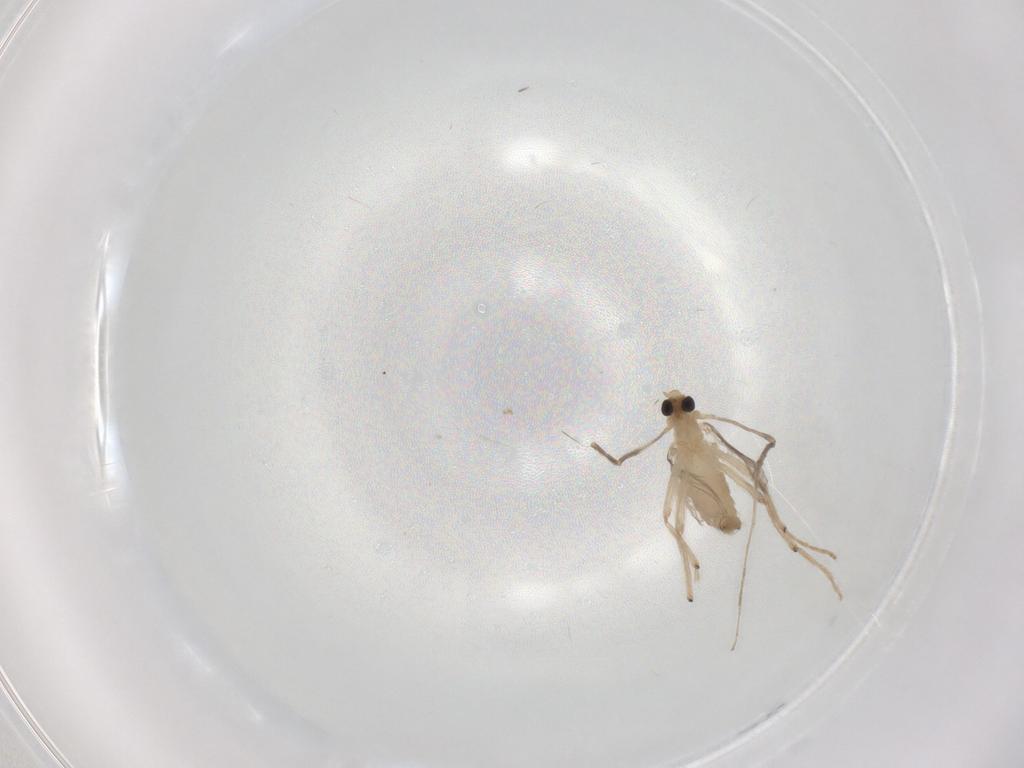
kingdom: Animalia
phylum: Arthropoda
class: Insecta
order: Diptera
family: Chironomidae
